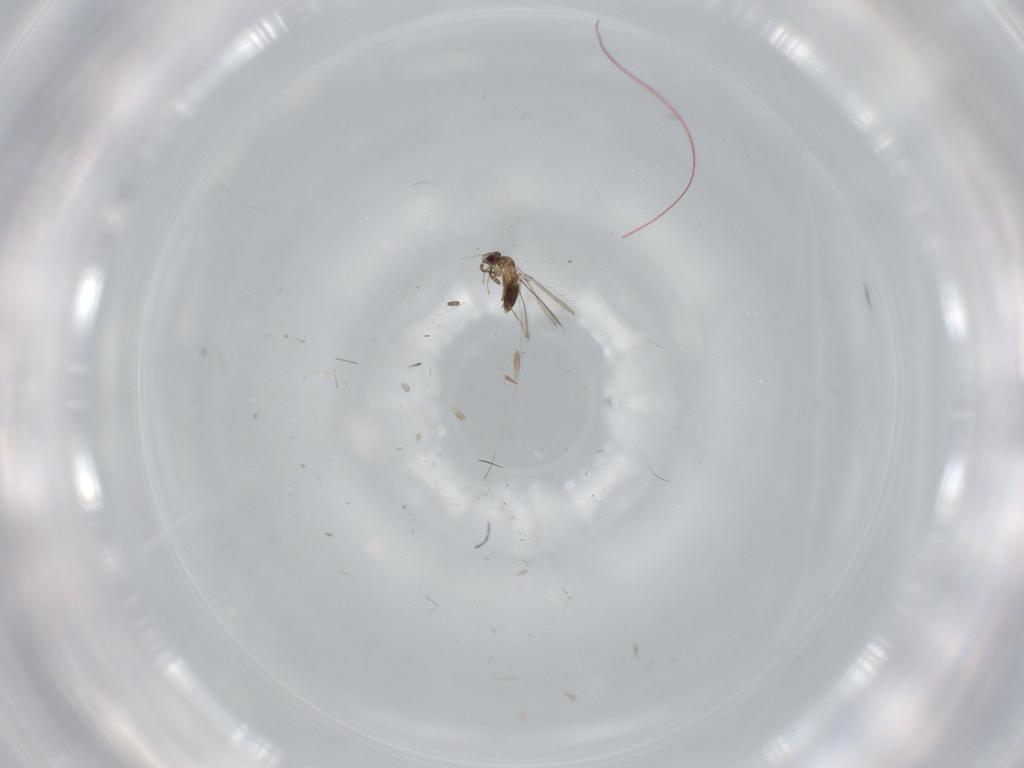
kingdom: Animalia
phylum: Arthropoda
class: Insecta
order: Hymenoptera
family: Mymaridae
